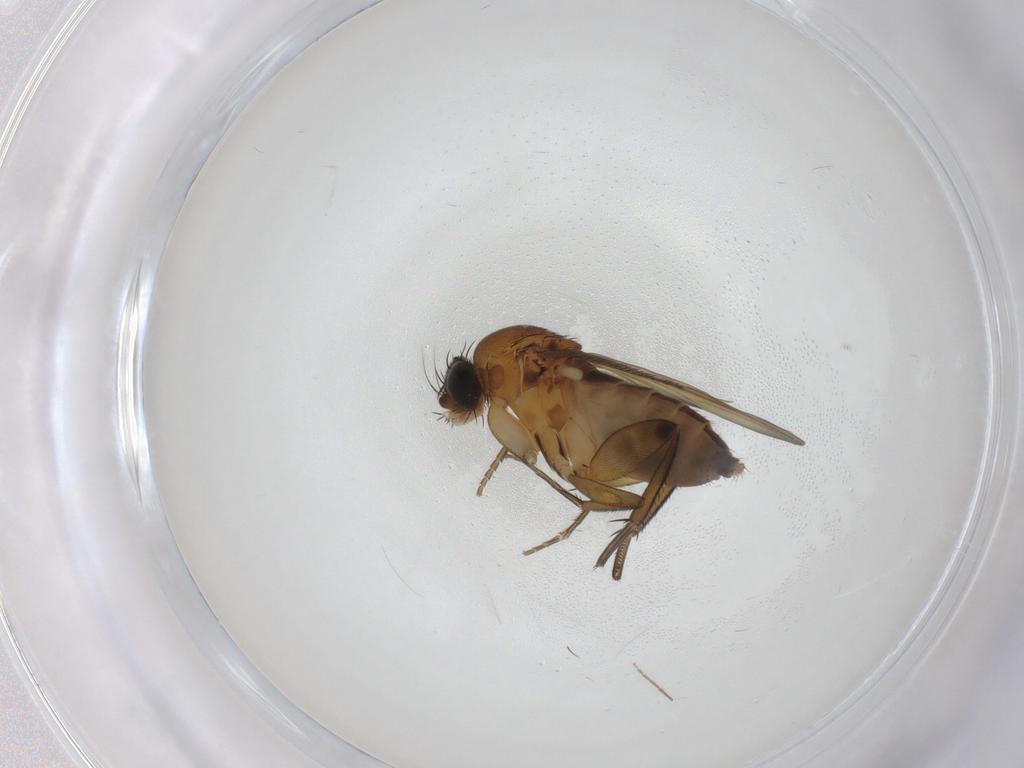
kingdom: Animalia
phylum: Arthropoda
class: Insecta
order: Diptera
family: Phoridae
